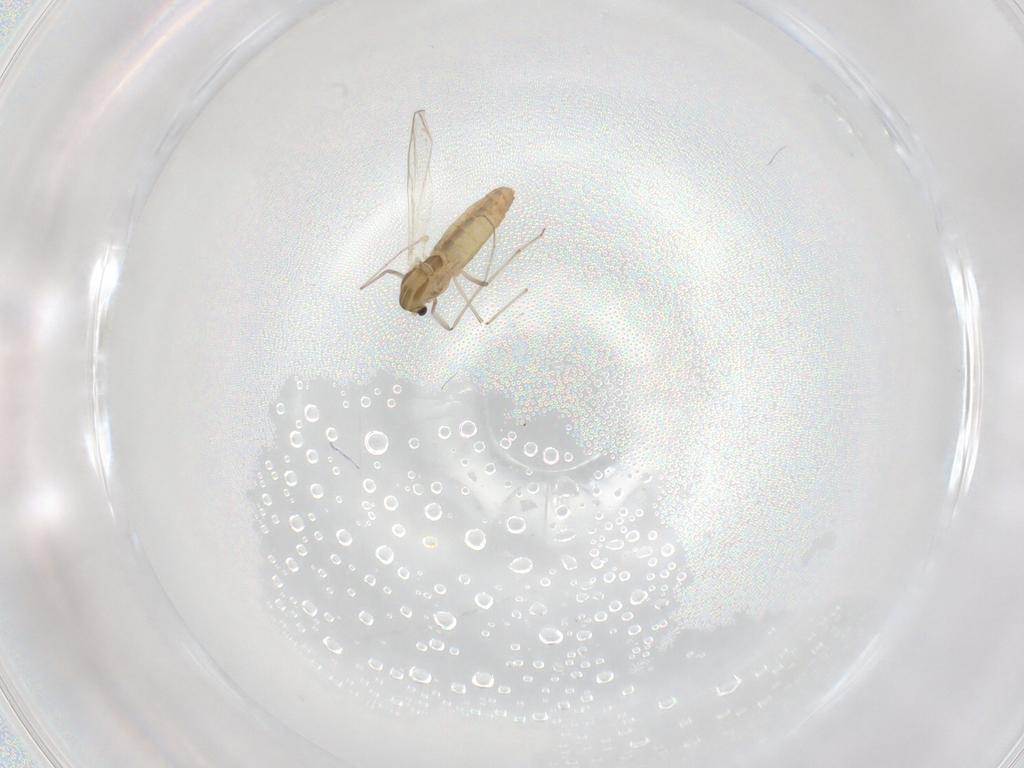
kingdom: Animalia
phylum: Arthropoda
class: Insecta
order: Diptera
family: Chironomidae
